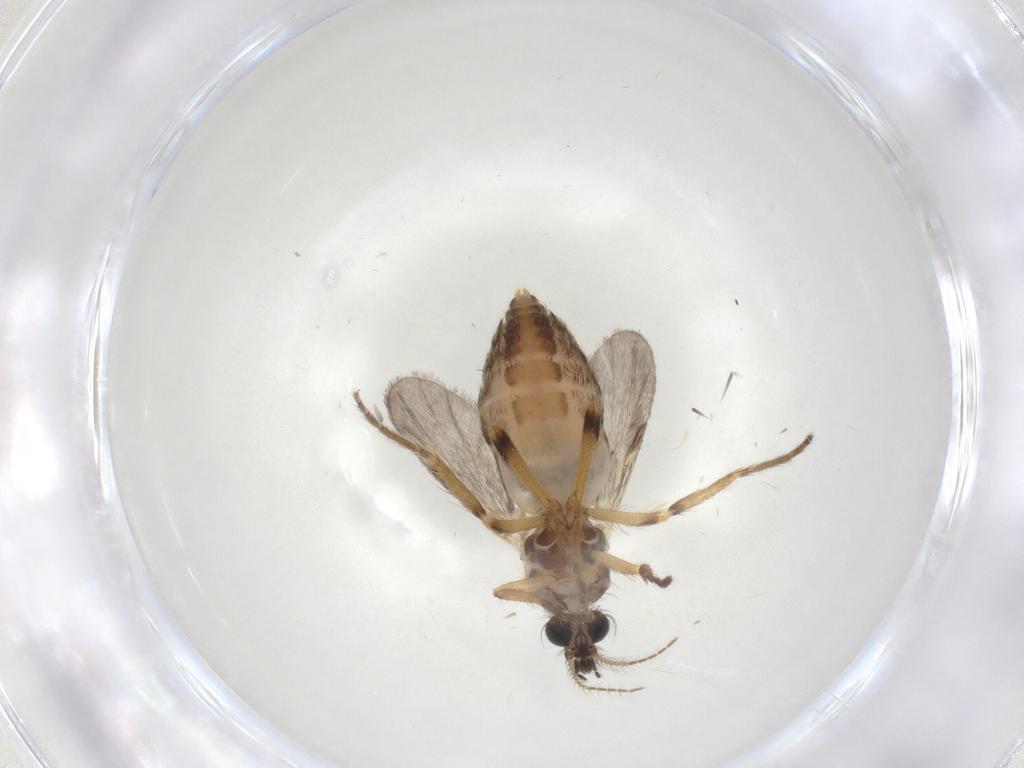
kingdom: Animalia
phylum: Arthropoda
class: Insecta
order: Diptera
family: Ceratopogonidae
